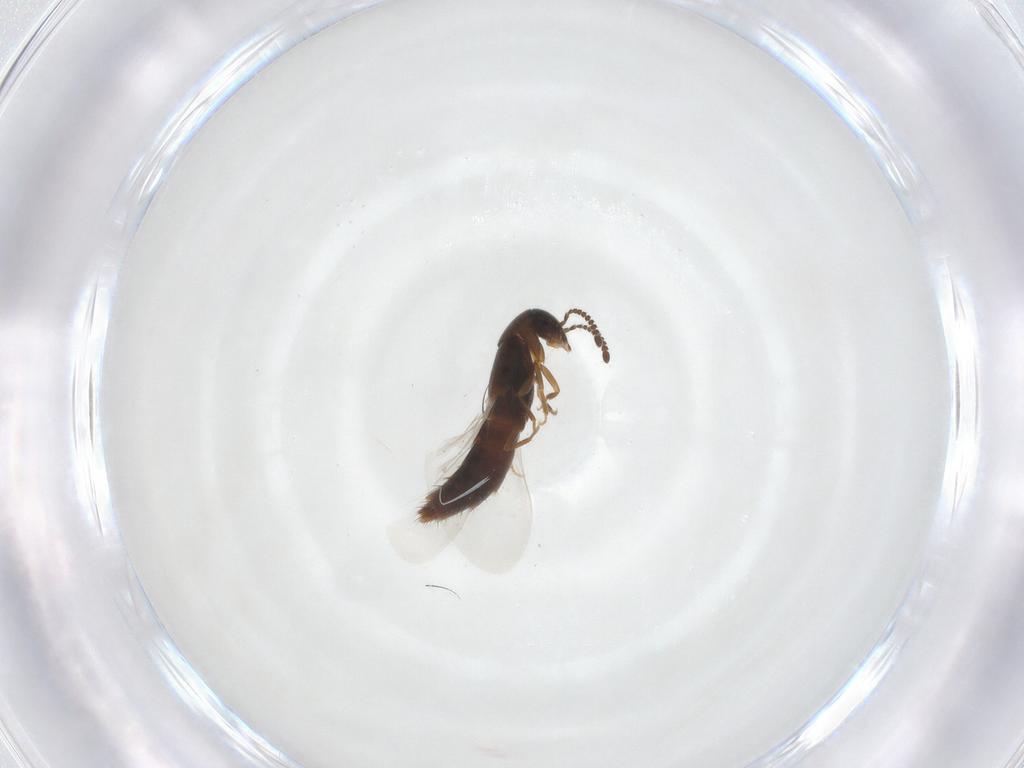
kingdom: Animalia
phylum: Arthropoda
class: Insecta
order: Coleoptera
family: Staphylinidae
